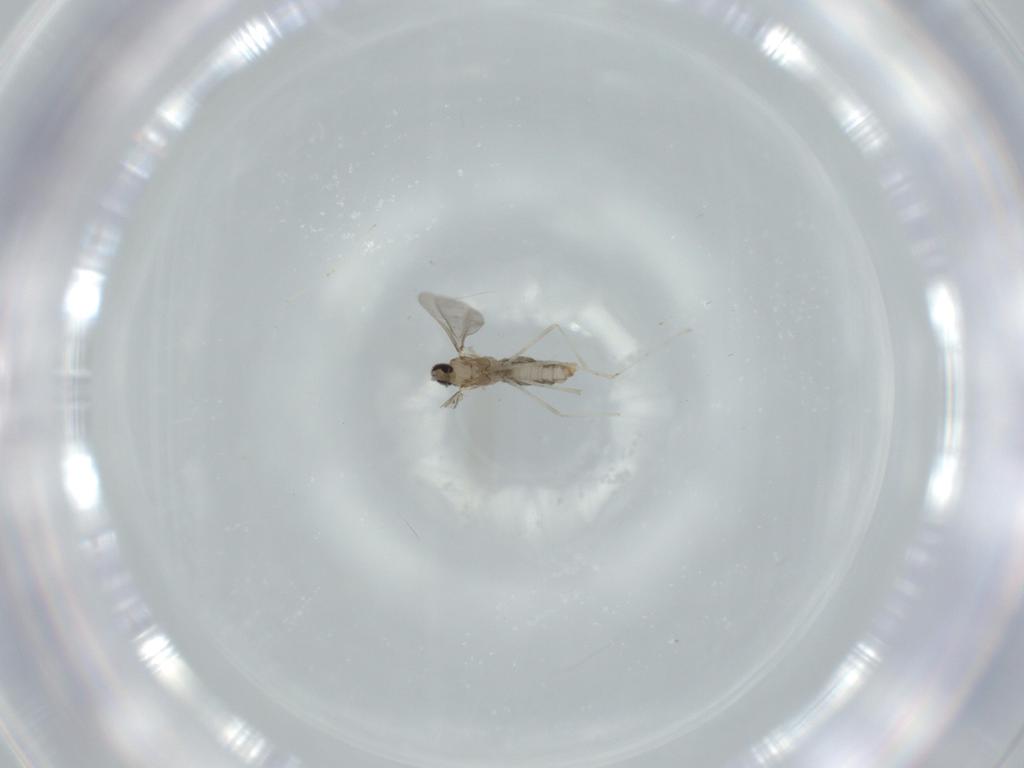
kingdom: Animalia
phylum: Arthropoda
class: Insecta
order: Diptera
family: Cecidomyiidae
